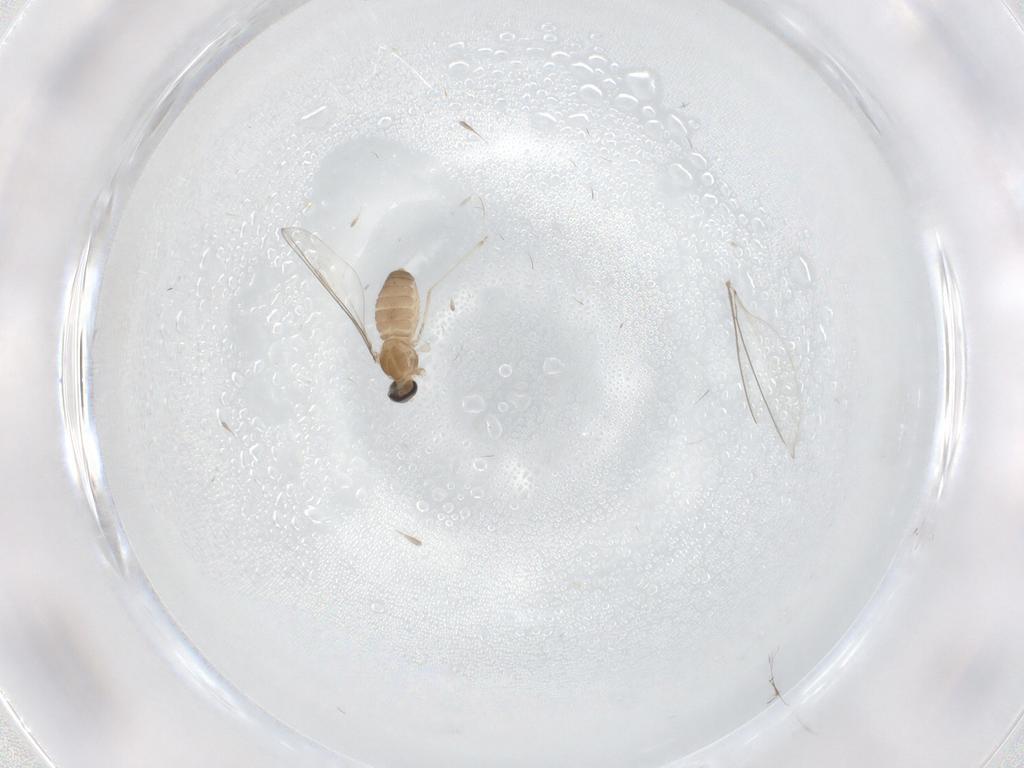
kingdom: Animalia
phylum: Arthropoda
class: Insecta
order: Diptera
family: Cecidomyiidae
